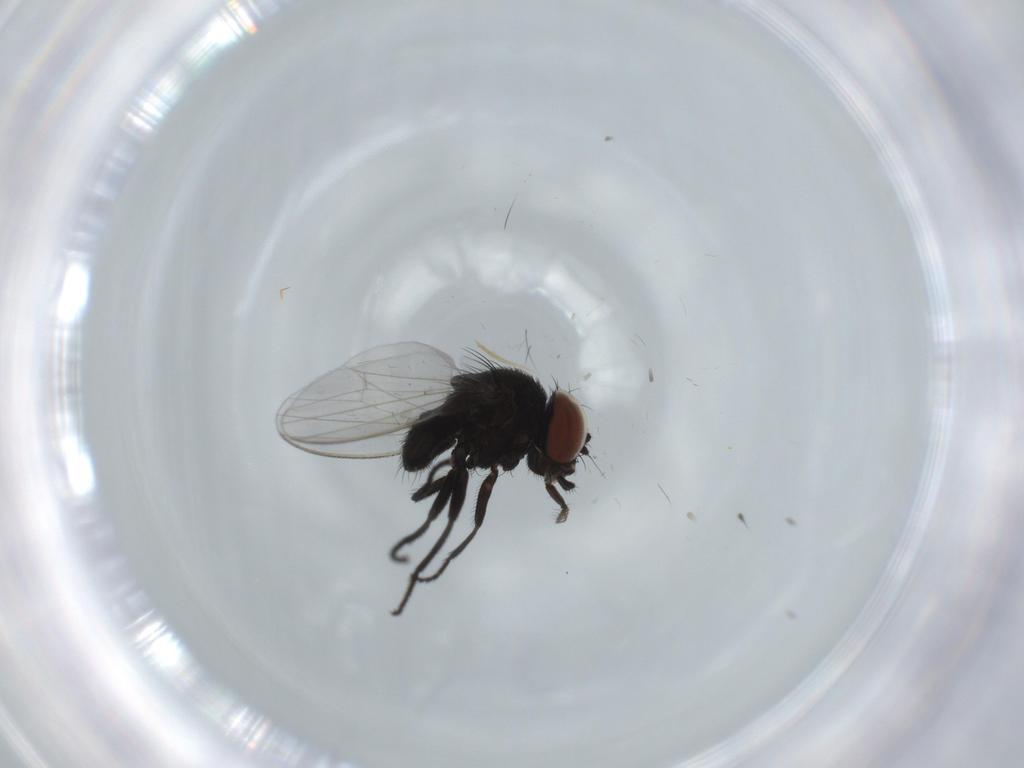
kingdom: Animalia
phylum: Arthropoda
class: Insecta
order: Diptera
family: Milichiidae
